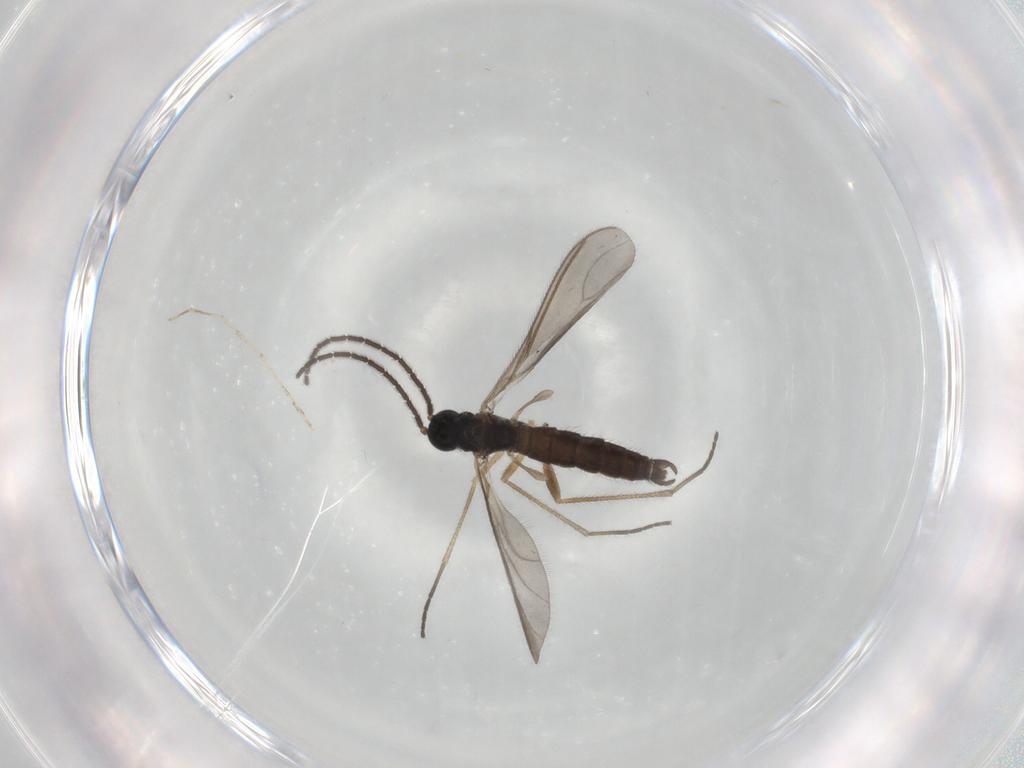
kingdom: Animalia
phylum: Arthropoda
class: Insecta
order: Diptera
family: Sciaridae
